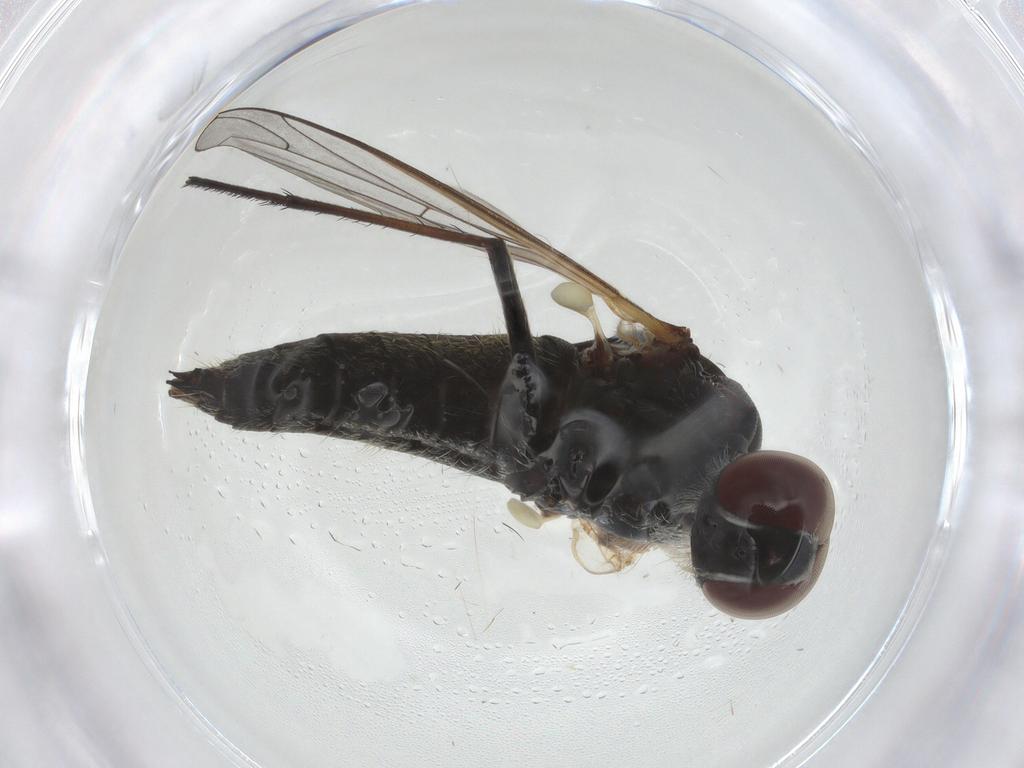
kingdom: Animalia
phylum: Arthropoda
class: Insecta
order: Diptera
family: Bombyliidae
